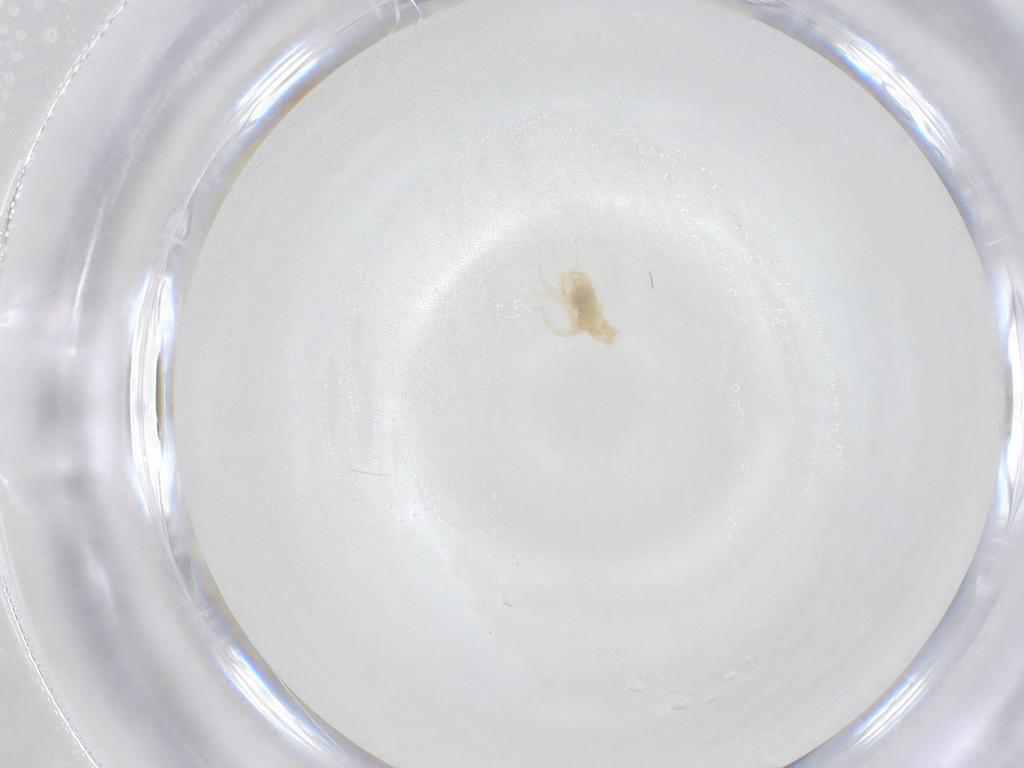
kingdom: Animalia
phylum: Arthropoda
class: Arachnida
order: Trombidiformes
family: Anystidae
